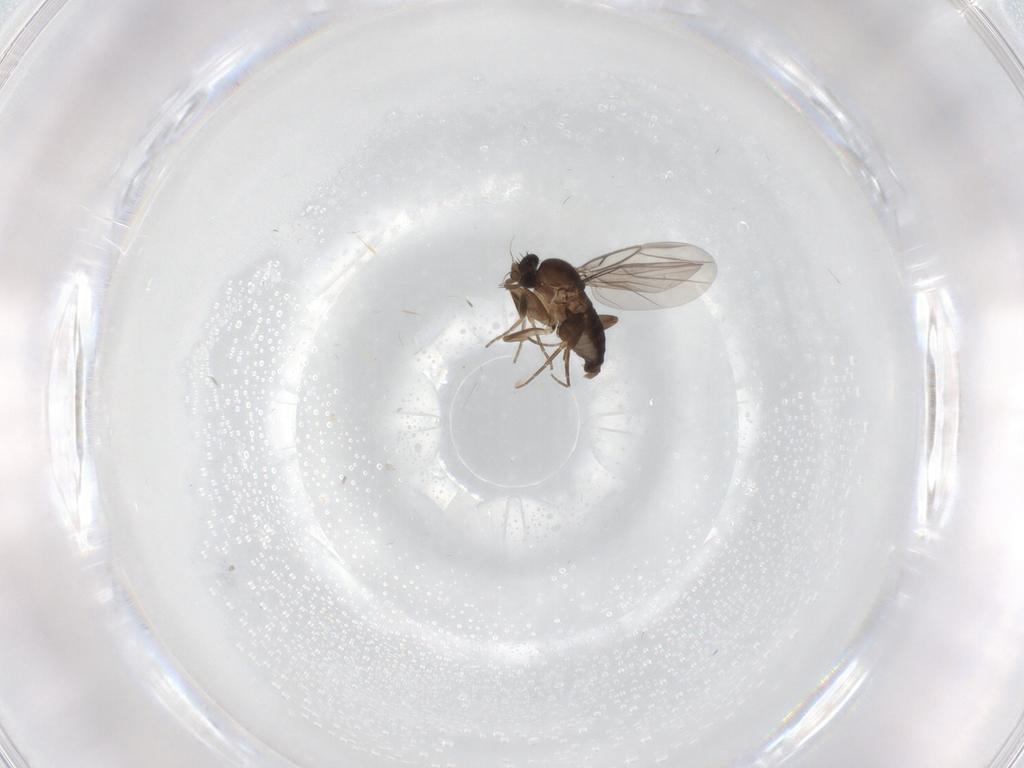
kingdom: Animalia
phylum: Arthropoda
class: Insecta
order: Diptera
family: Phoridae
